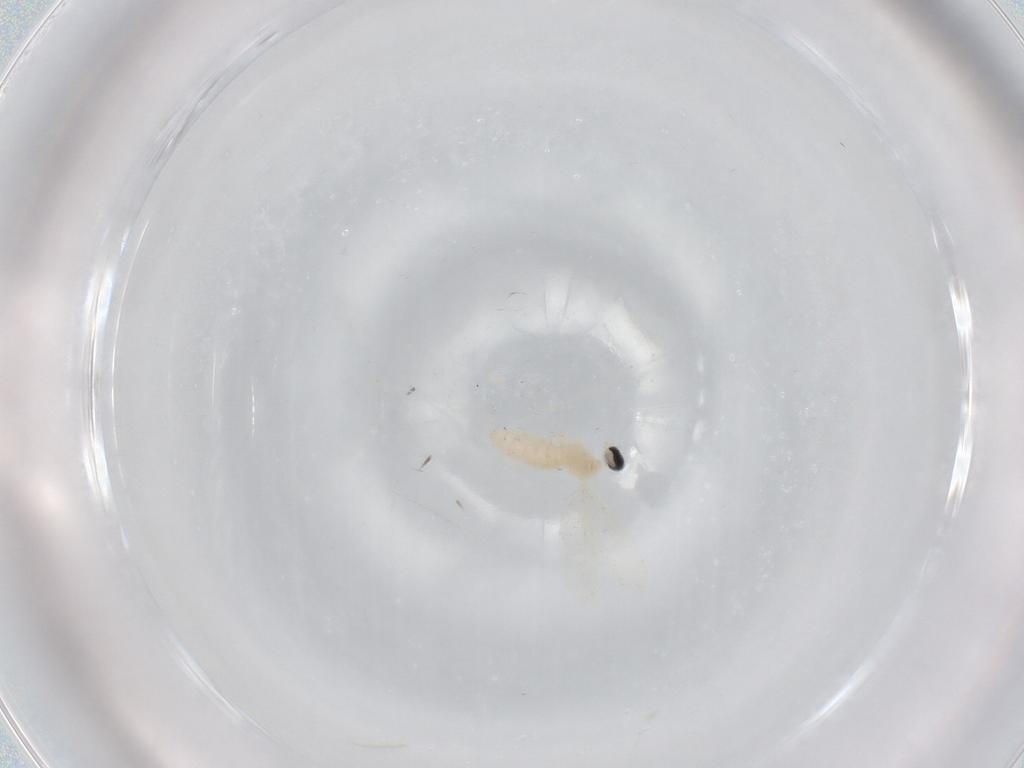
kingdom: Animalia
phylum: Arthropoda
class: Insecta
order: Diptera
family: Cecidomyiidae
